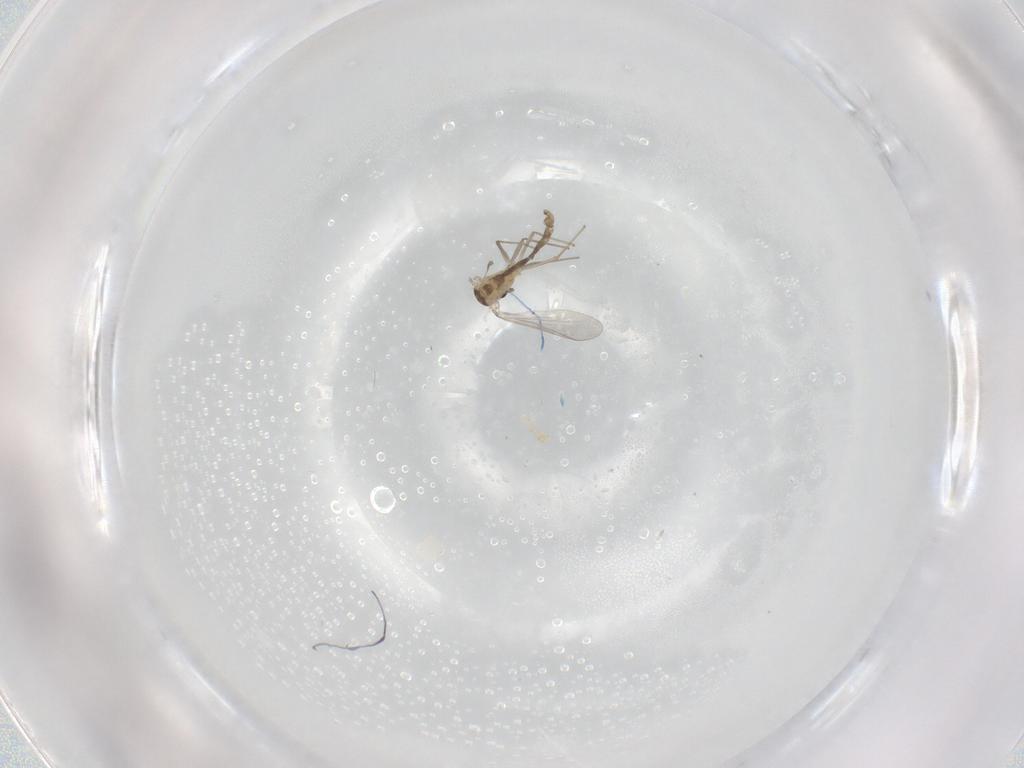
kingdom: Animalia
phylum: Arthropoda
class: Insecta
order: Diptera
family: Chironomidae
